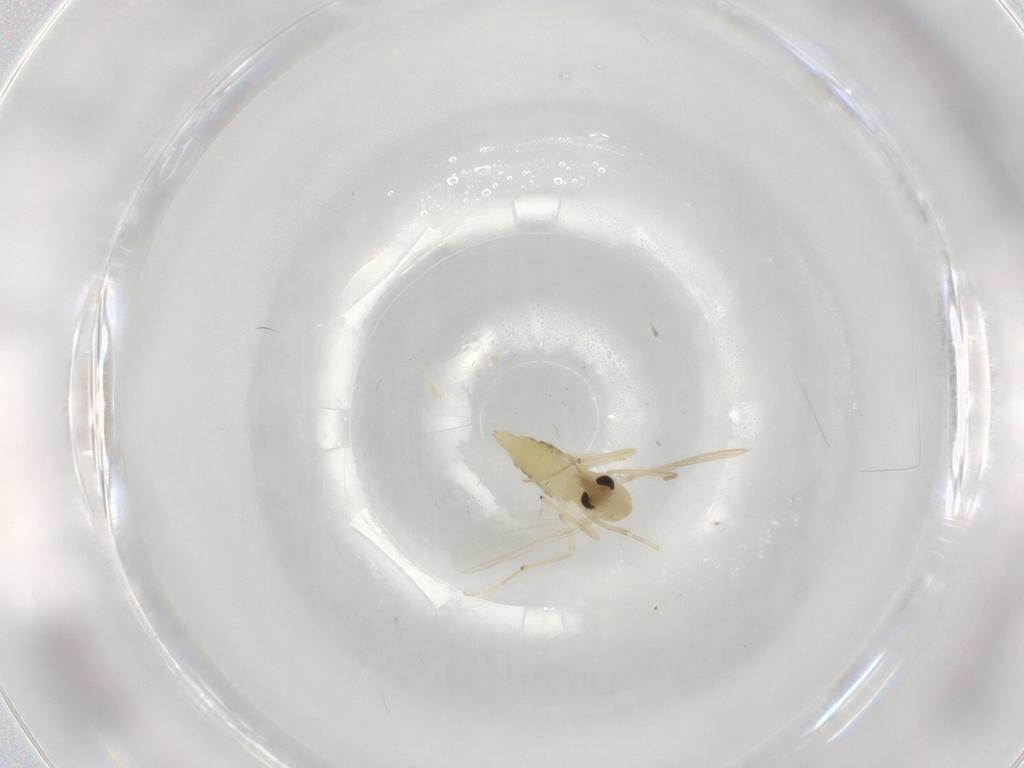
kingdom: Animalia
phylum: Arthropoda
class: Insecta
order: Diptera
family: Chironomidae
